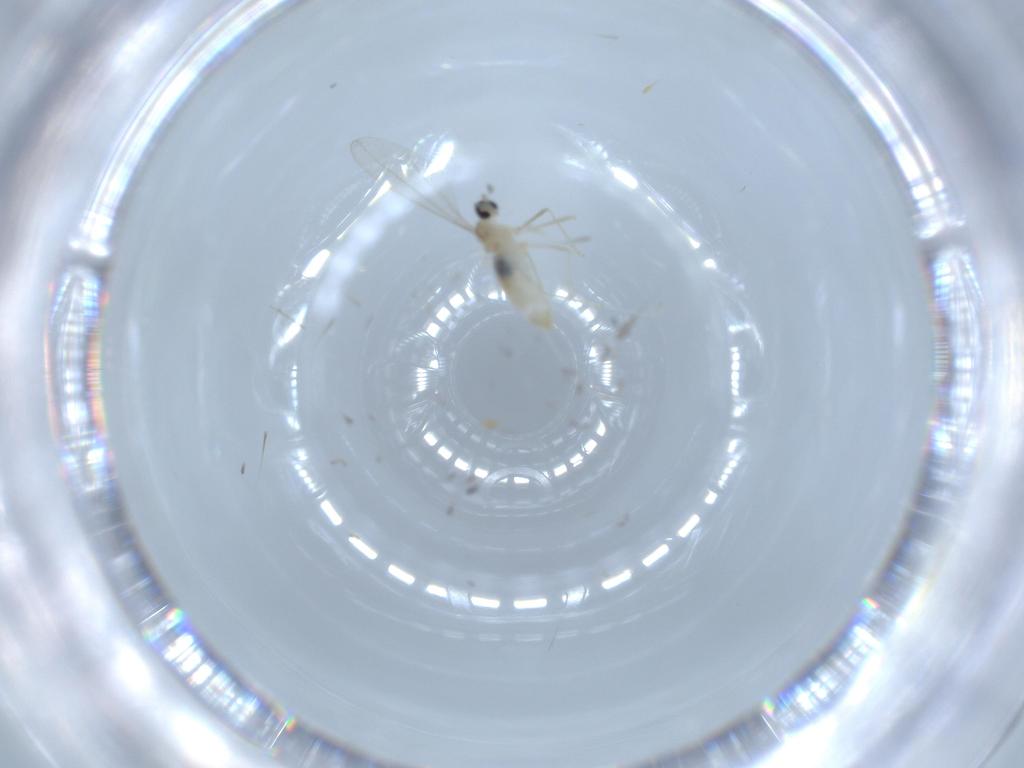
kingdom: Animalia
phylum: Arthropoda
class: Insecta
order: Diptera
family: Cecidomyiidae
